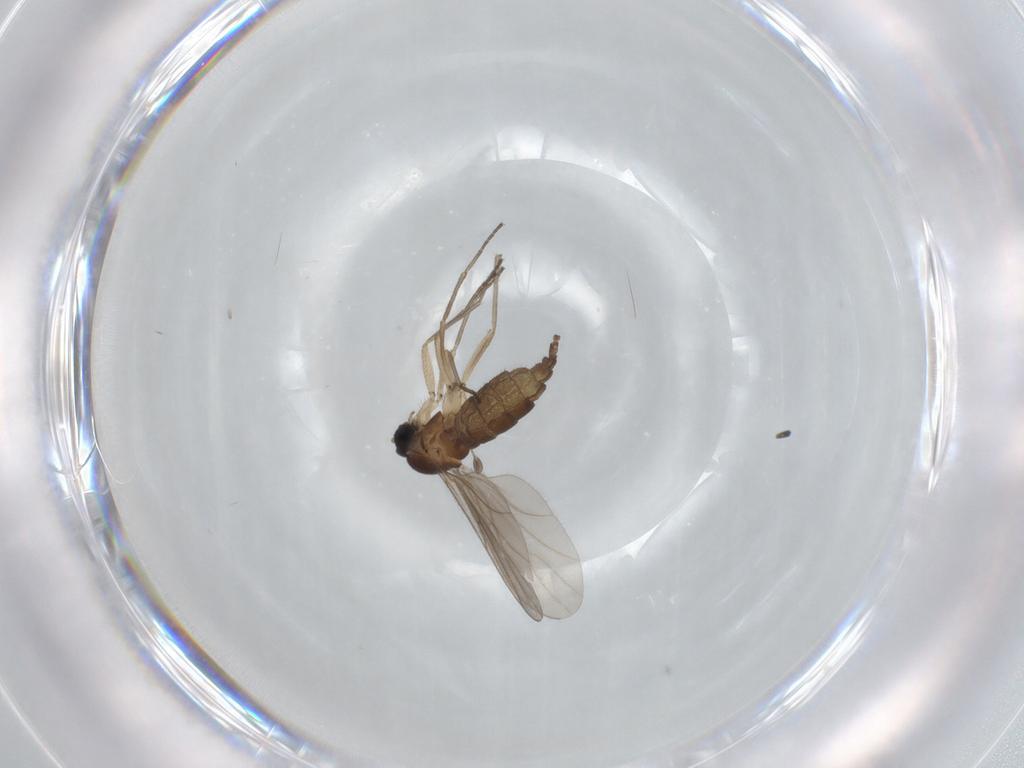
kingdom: Animalia
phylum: Arthropoda
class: Insecta
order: Diptera
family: Sciaridae
